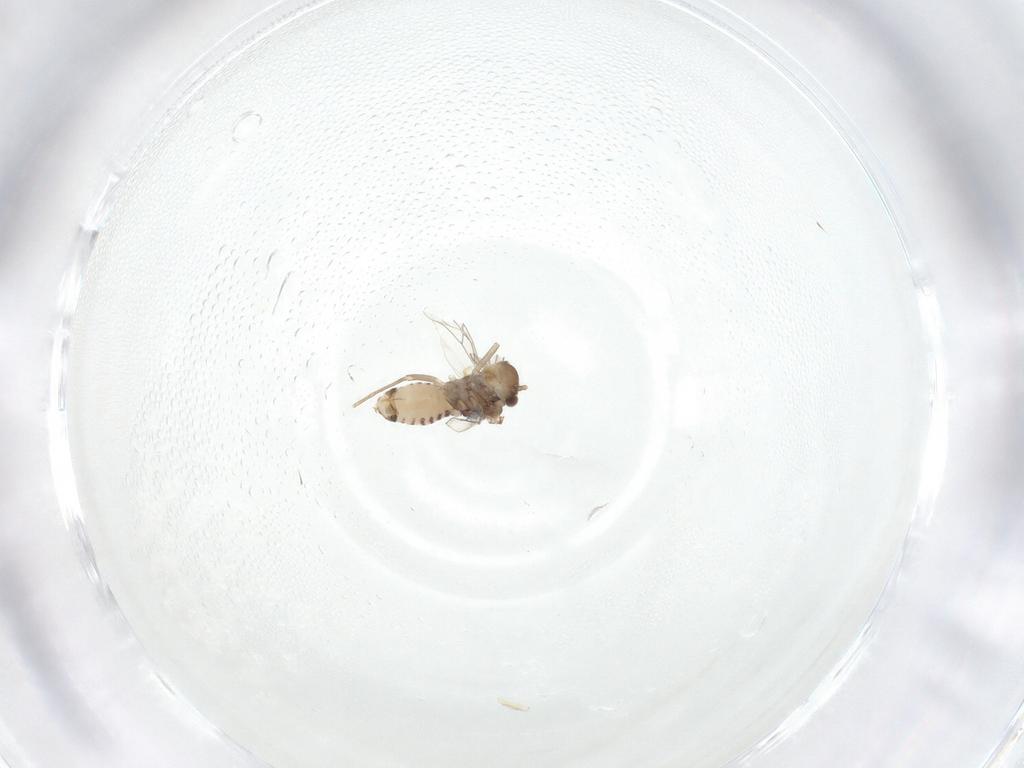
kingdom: Animalia
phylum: Arthropoda
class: Insecta
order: Psocodea
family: Lachesillidae
